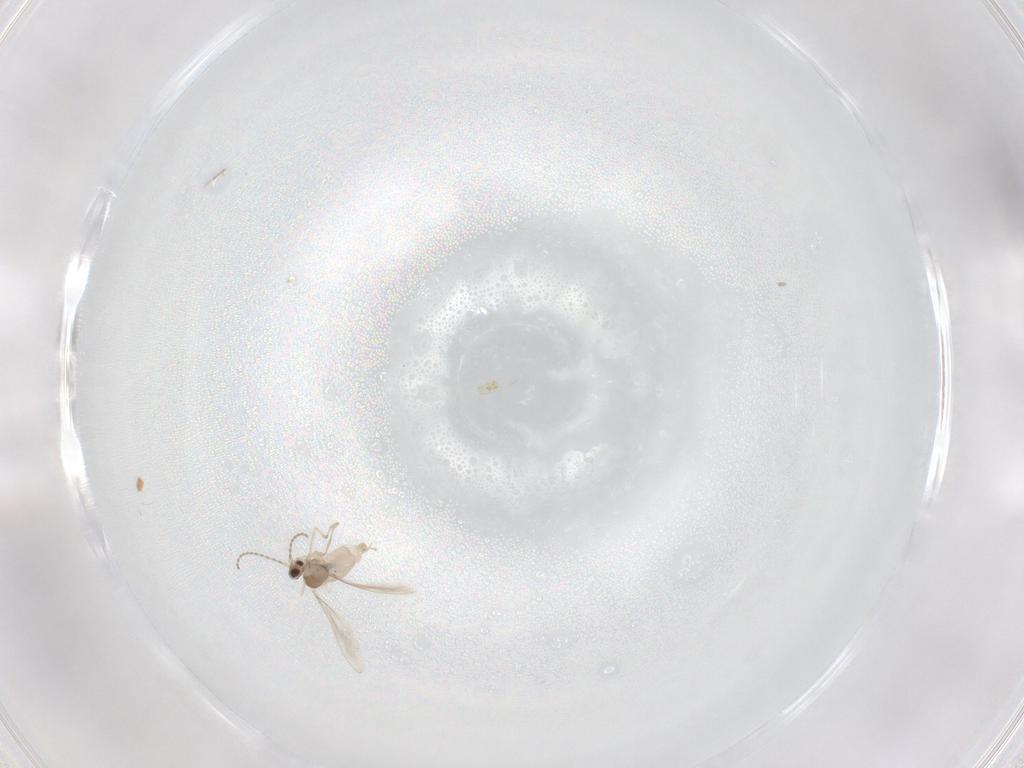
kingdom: Animalia
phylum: Arthropoda
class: Insecta
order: Diptera
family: Cecidomyiidae
